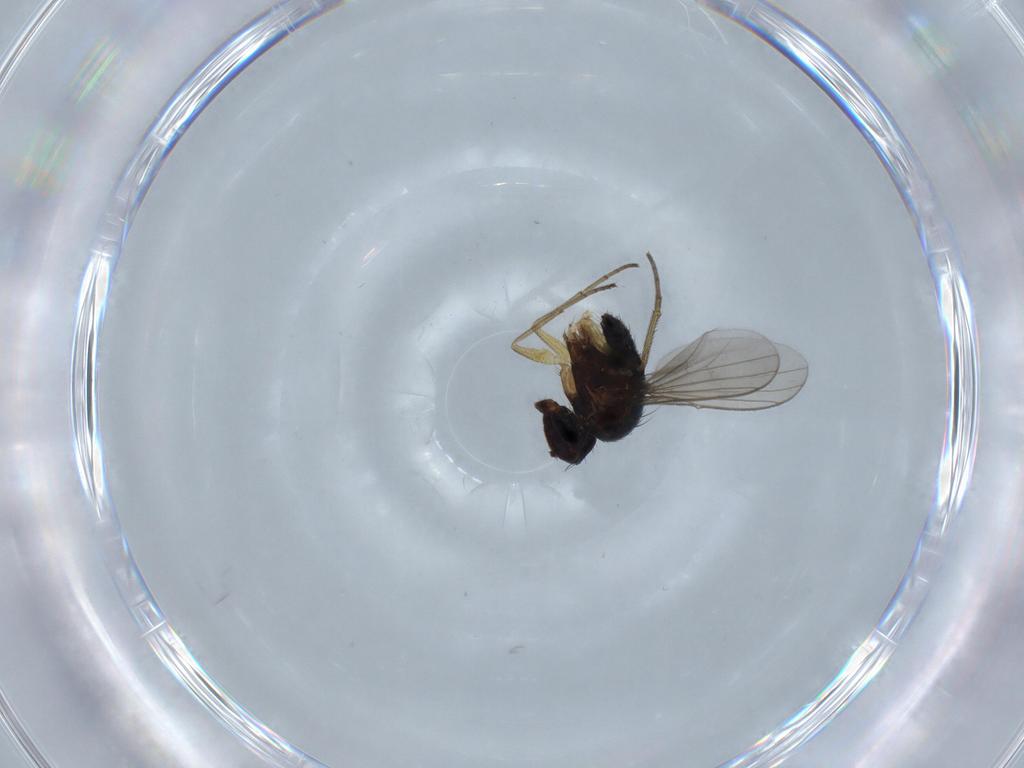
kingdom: Animalia
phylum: Arthropoda
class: Insecta
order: Diptera
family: Dolichopodidae
